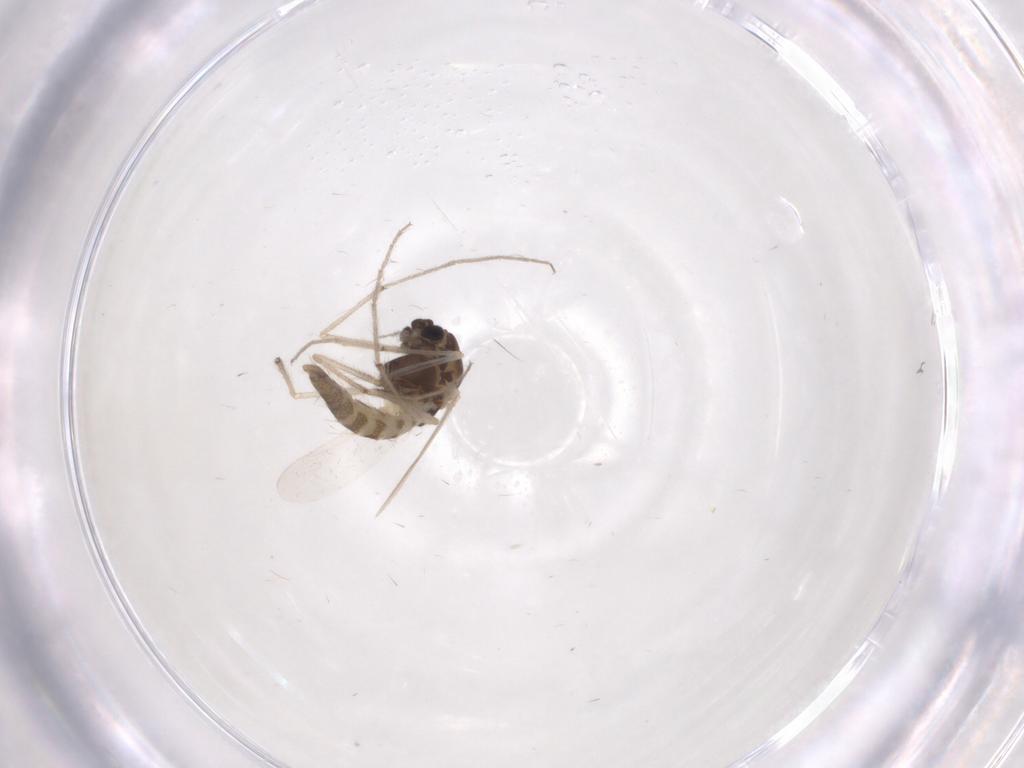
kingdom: Animalia
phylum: Arthropoda
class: Insecta
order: Diptera
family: Chironomidae
